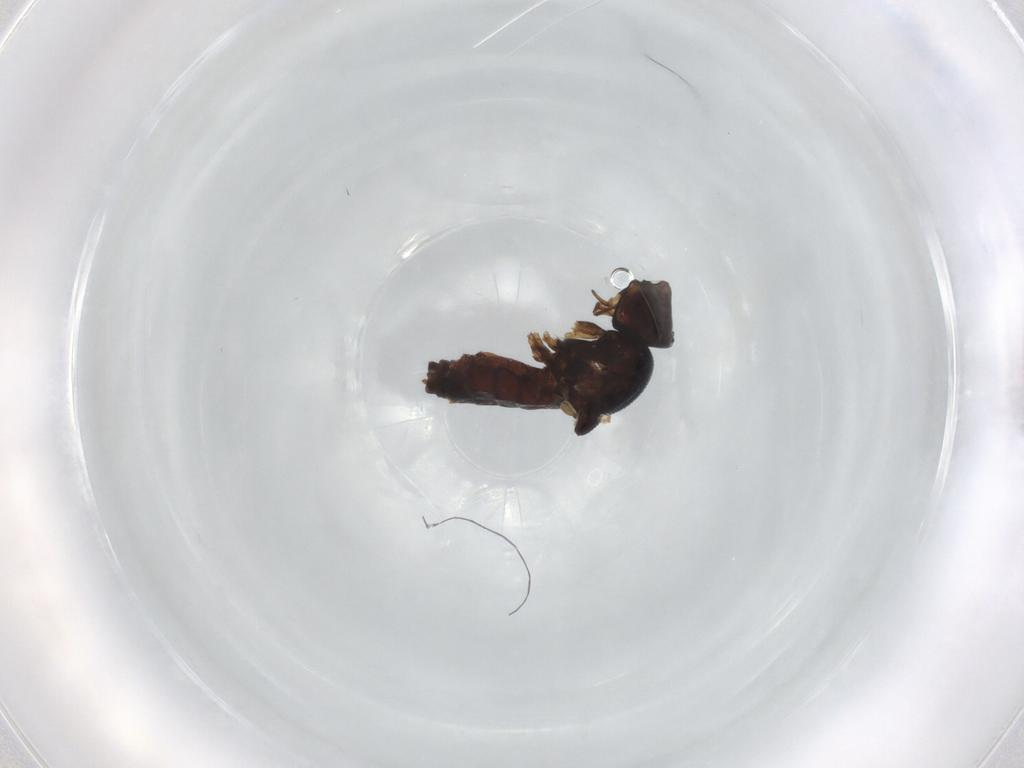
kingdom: Animalia
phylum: Arthropoda
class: Insecta
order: Diptera
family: Chloropidae
